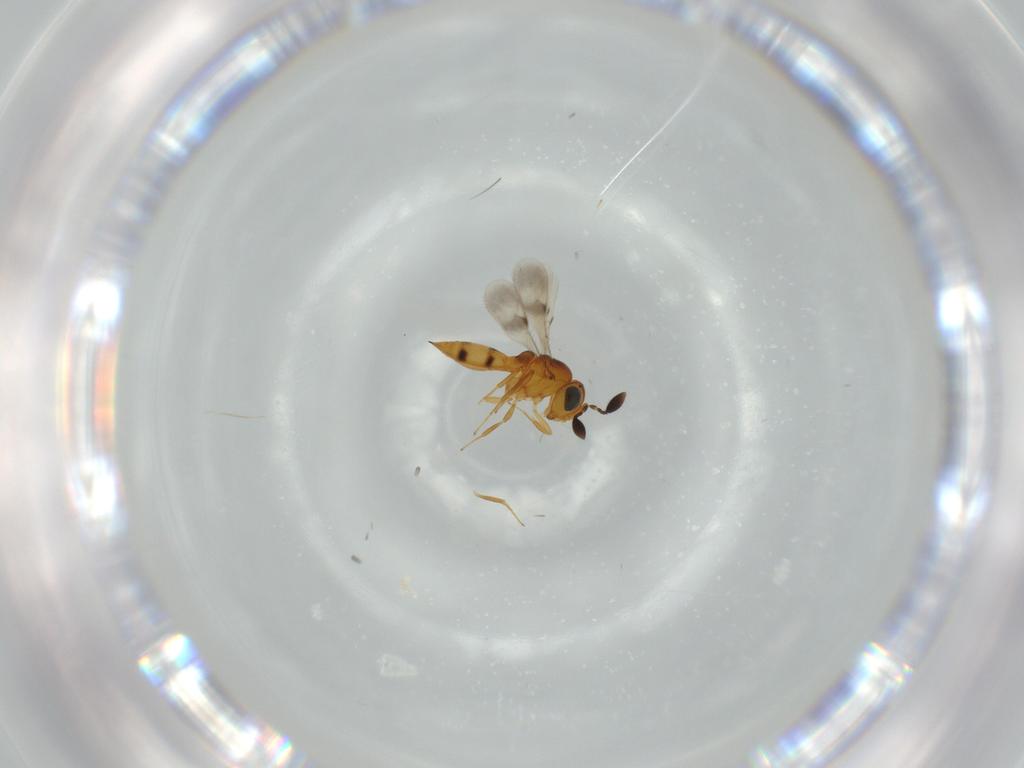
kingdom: Animalia
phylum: Arthropoda
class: Insecta
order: Hymenoptera
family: Scelionidae
